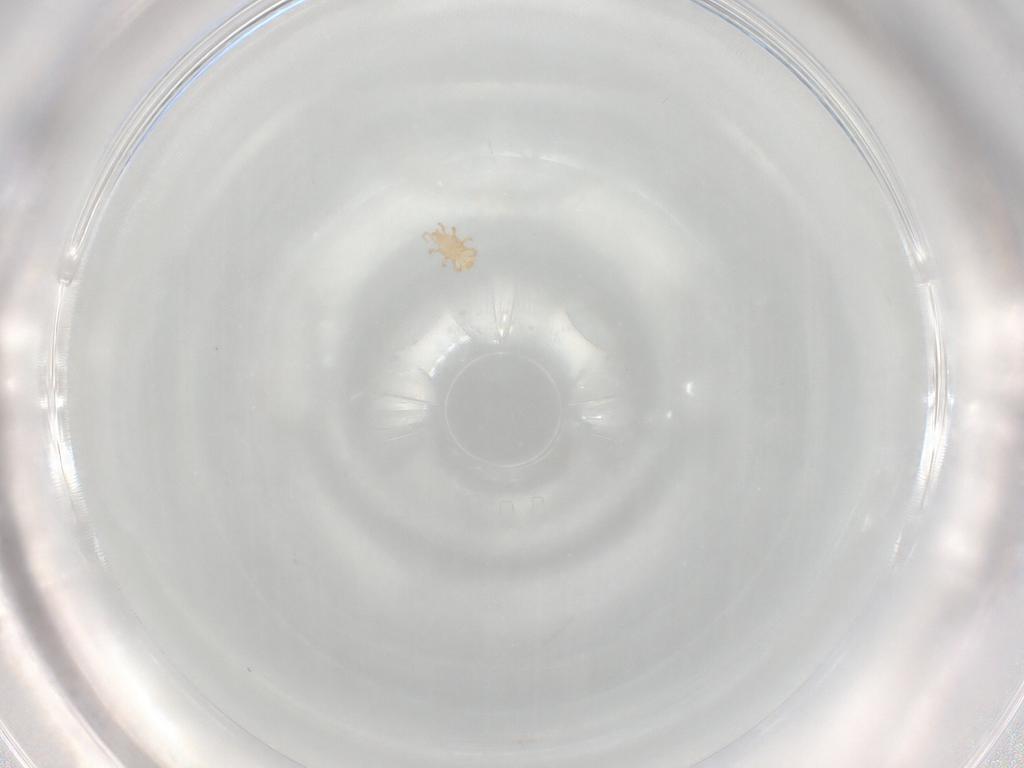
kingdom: Animalia
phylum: Arthropoda
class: Arachnida
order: Mesostigmata
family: Ascidae
